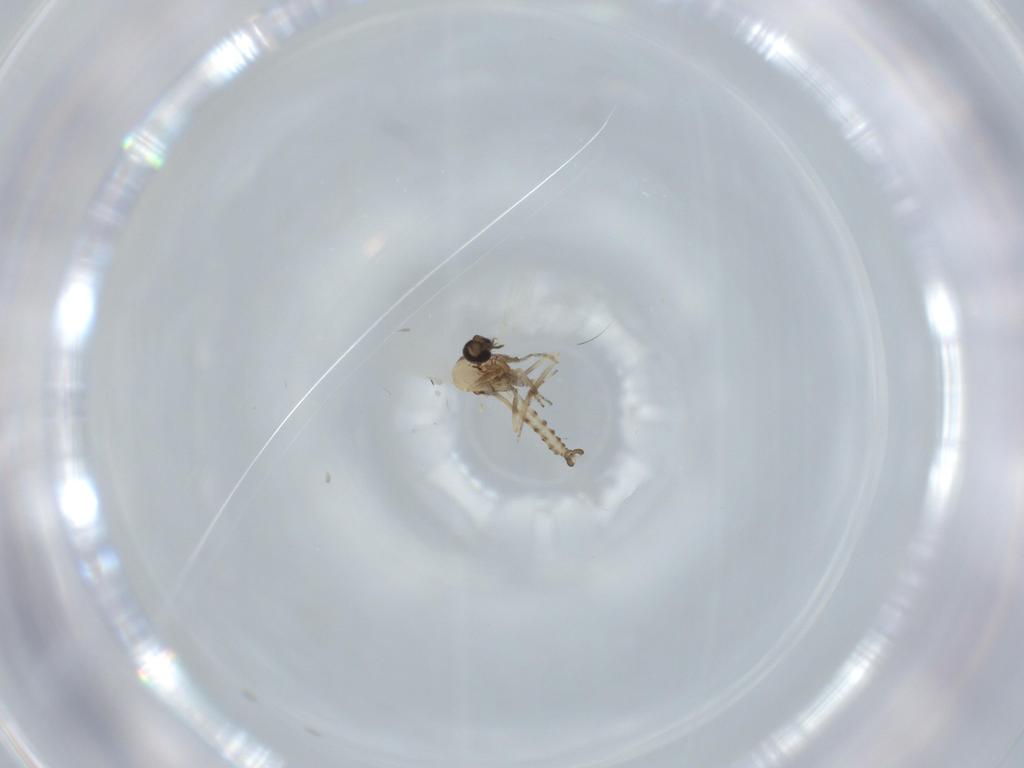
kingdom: Animalia
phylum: Arthropoda
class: Insecta
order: Diptera
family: Ceratopogonidae
